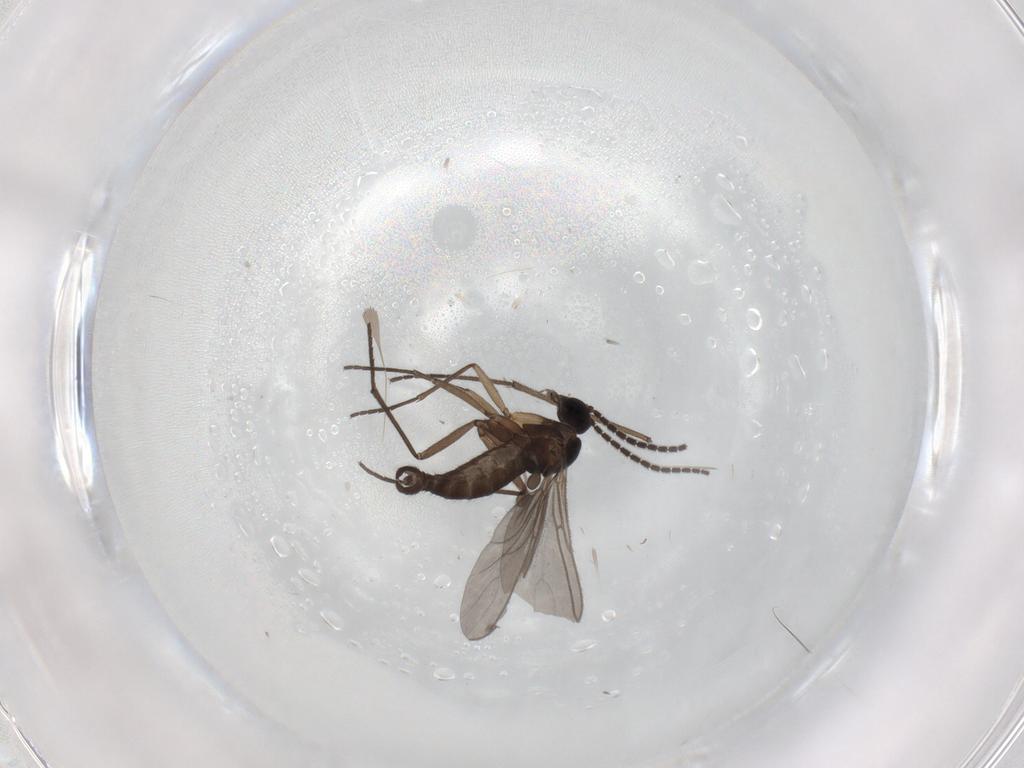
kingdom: Animalia
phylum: Arthropoda
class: Insecta
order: Diptera
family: Sciaridae
